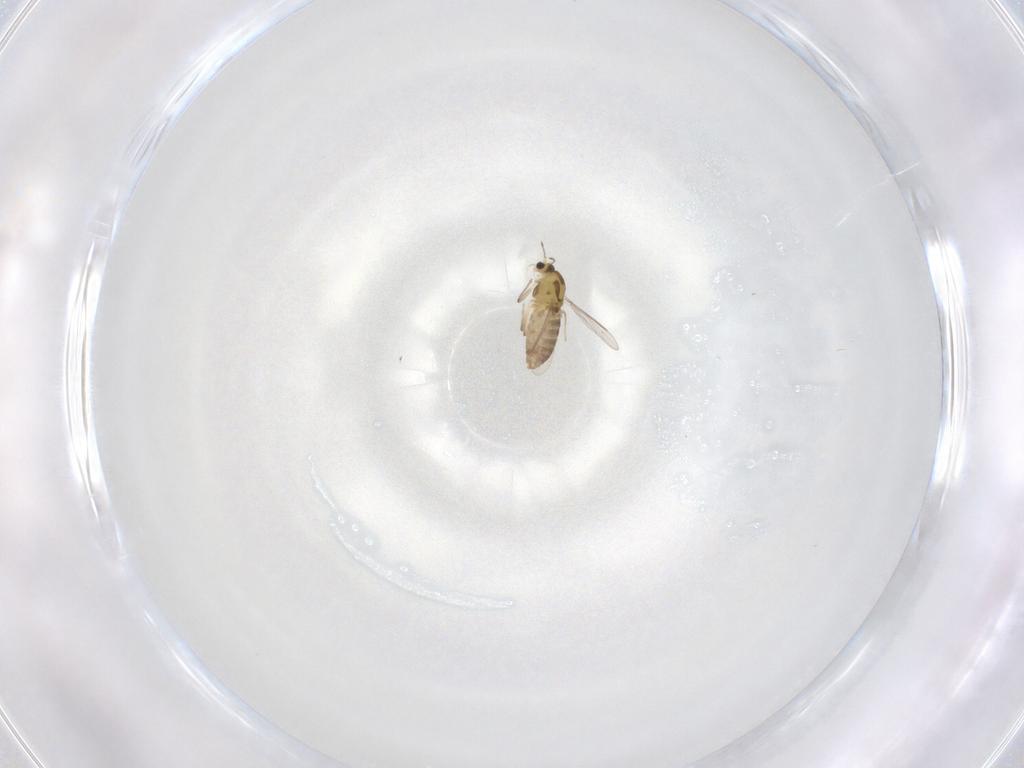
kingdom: Animalia
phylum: Arthropoda
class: Insecta
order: Diptera
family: Chironomidae
